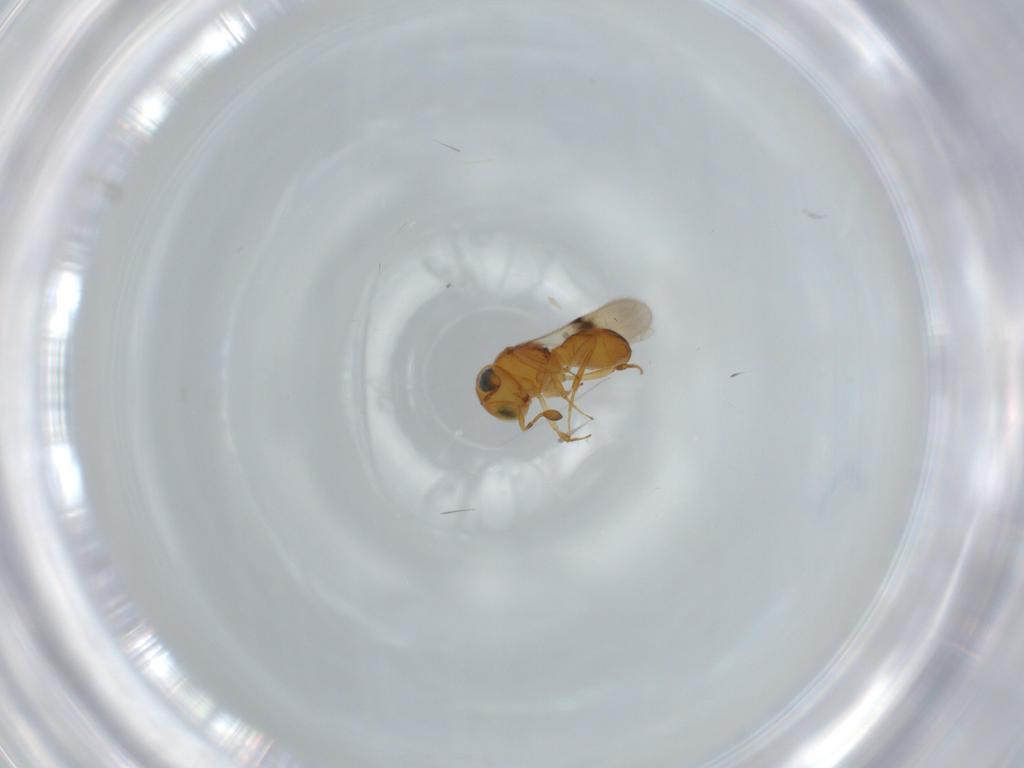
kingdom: Animalia
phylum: Arthropoda
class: Insecta
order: Hymenoptera
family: Scelionidae
